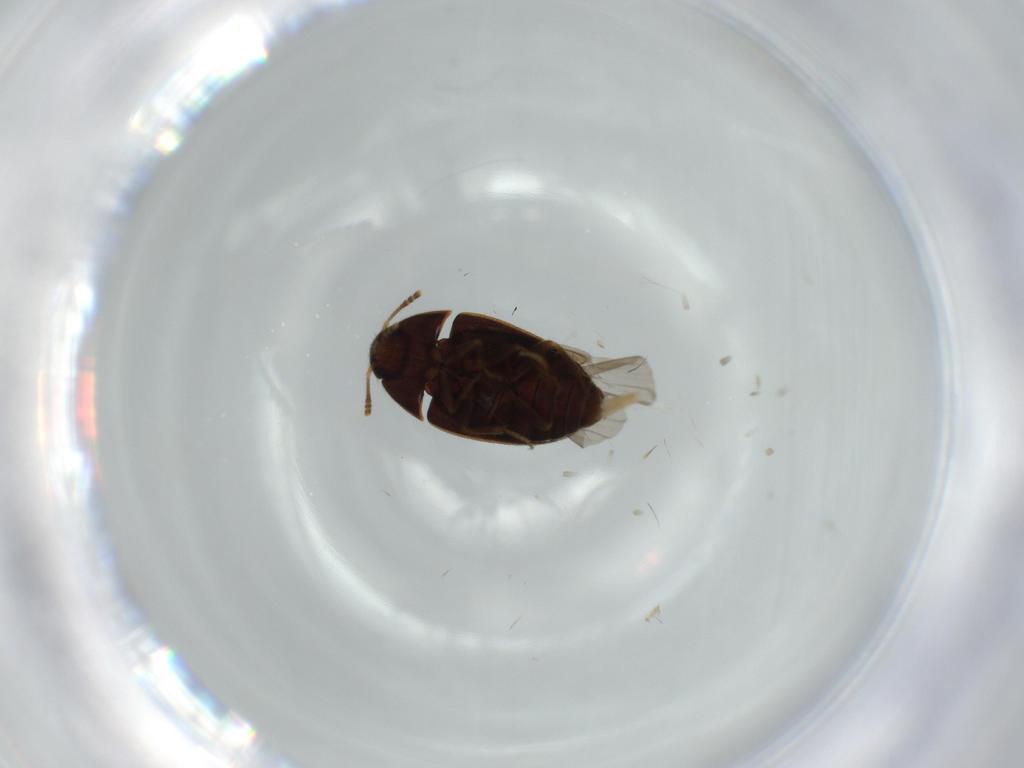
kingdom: Animalia
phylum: Arthropoda
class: Insecta
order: Coleoptera
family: Mycetophagidae
